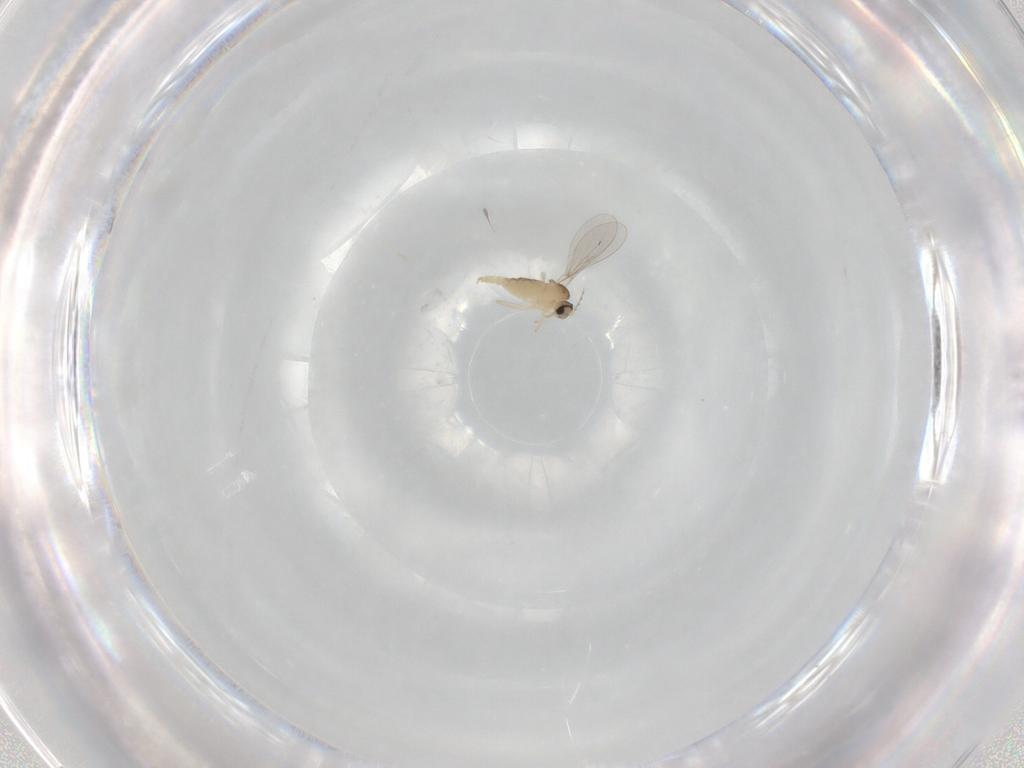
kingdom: Animalia
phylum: Arthropoda
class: Insecta
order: Diptera
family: Cecidomyiidae
